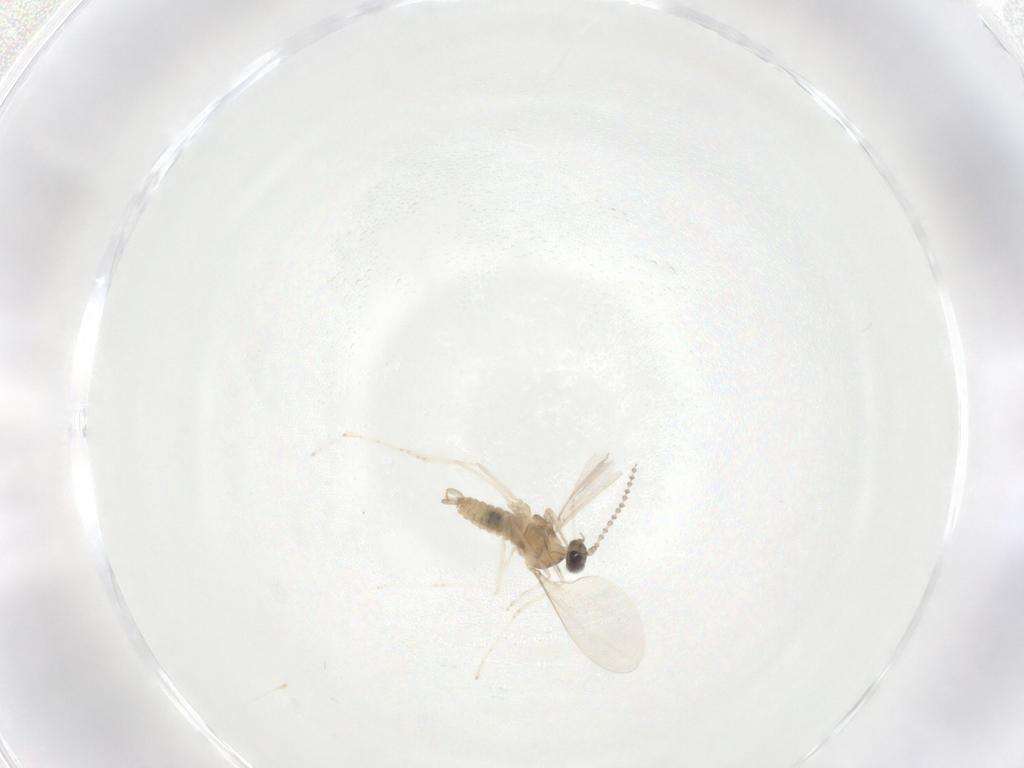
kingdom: Animalia
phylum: Arthropoda
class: Insecta
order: Diptera
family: Cecidomyiidae
